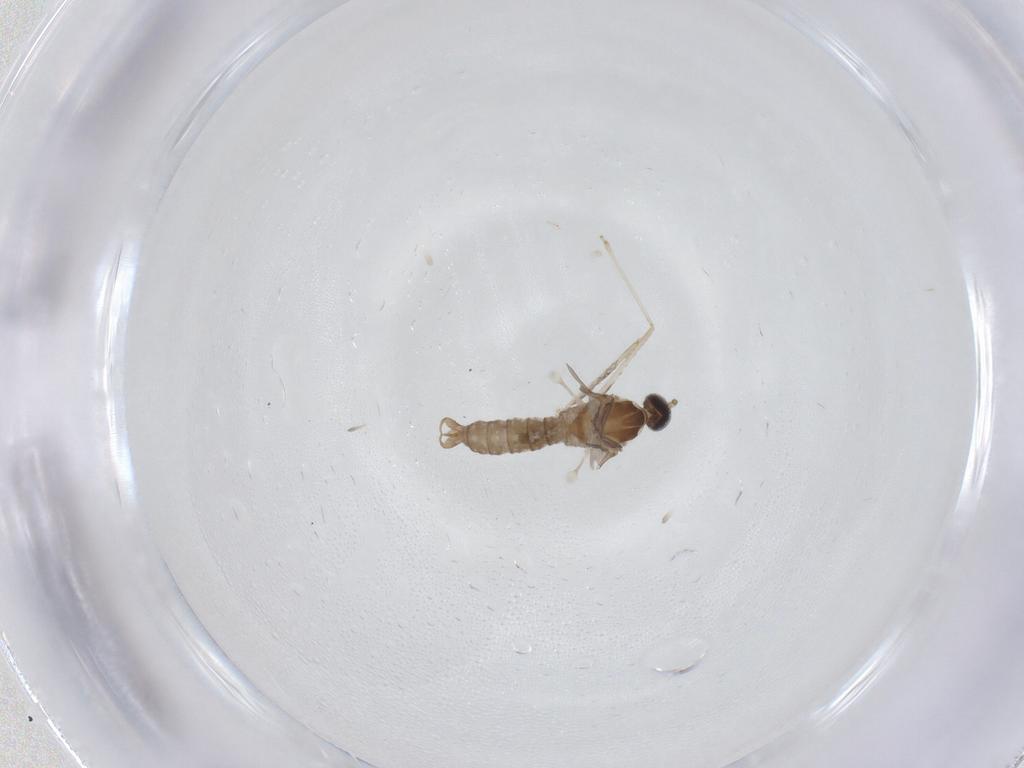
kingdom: Animalia
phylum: Arthropoda
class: Insecta
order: Diptera
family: Cecidomyiidae
